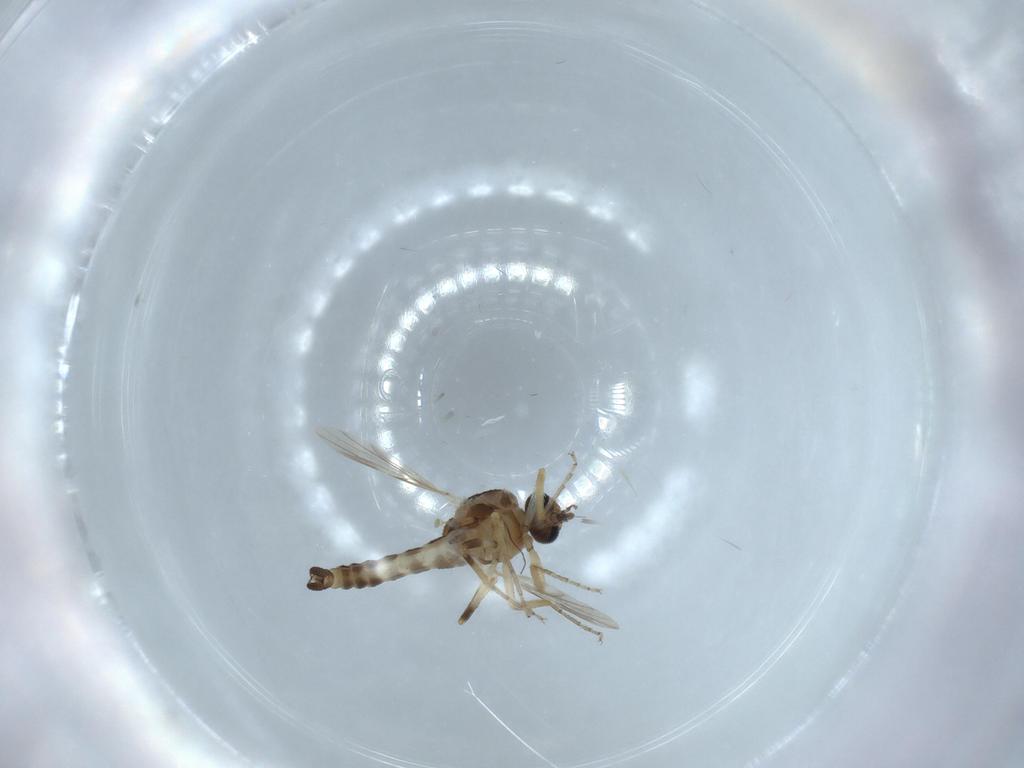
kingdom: Animalia
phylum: Arthropoda
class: Insecta
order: Diptera
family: Ceratopogonidae
